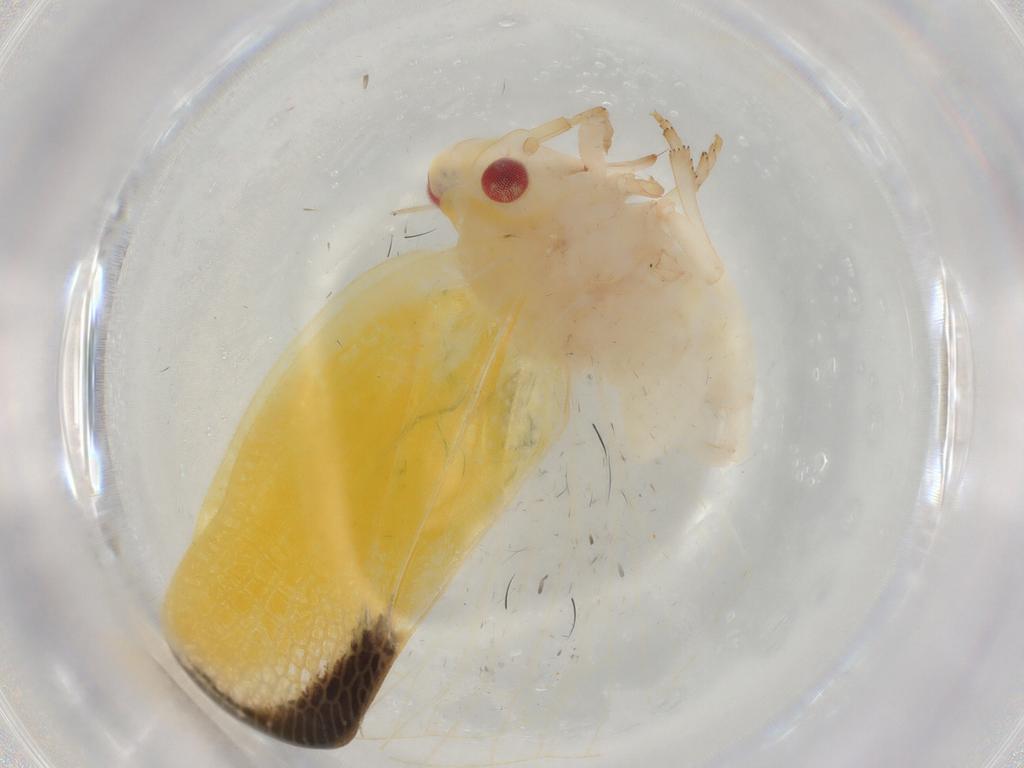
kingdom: Animalia
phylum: Arthropoda
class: Insecta
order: Hemiptera
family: Flatidae
